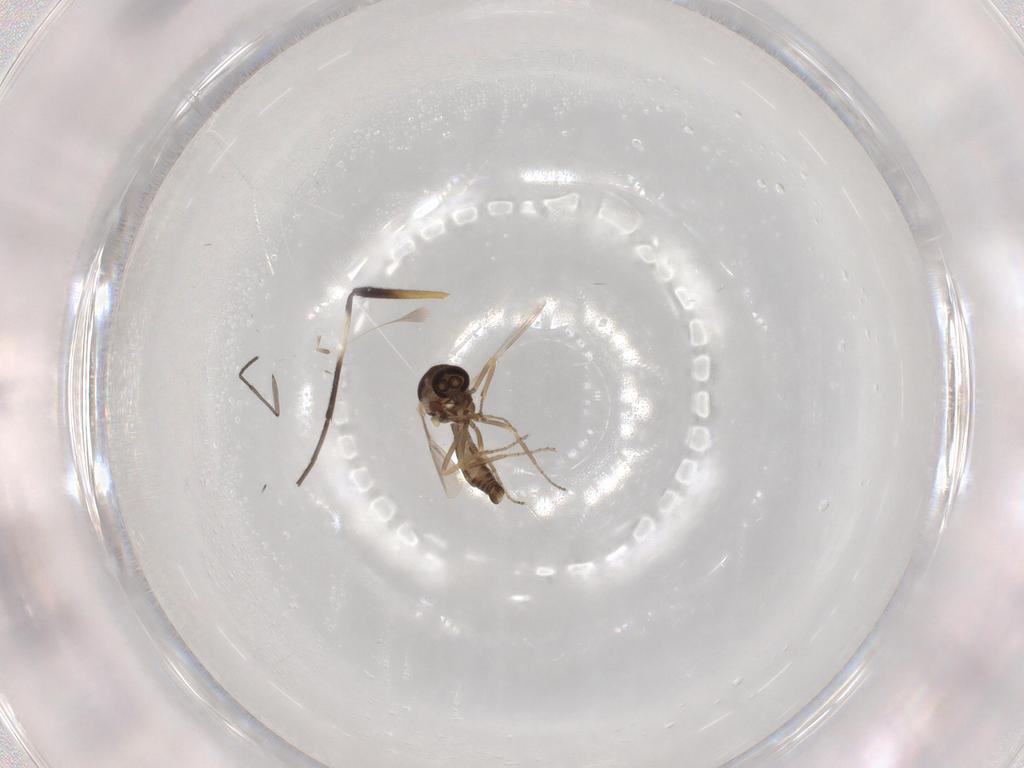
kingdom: Animalia
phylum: Arthropoda
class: Insecta
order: Diptera
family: Ceratopogonidae
